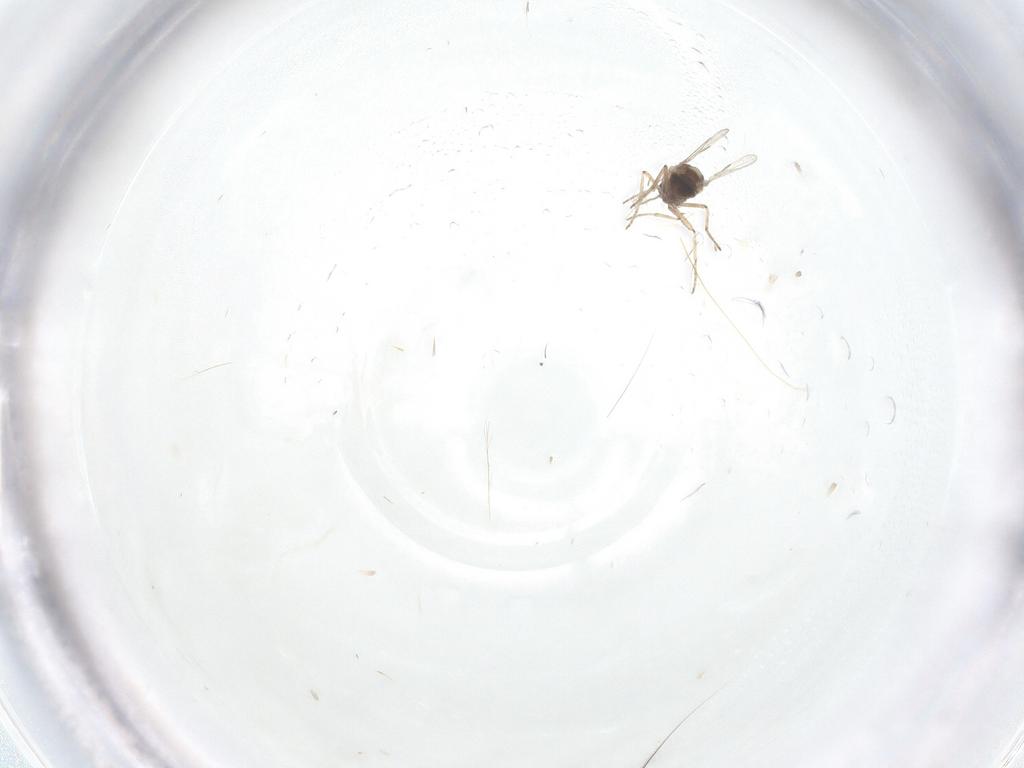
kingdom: Animalia
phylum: Arthropoda
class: Insecta
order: Diptera
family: Ceratopogonidae
